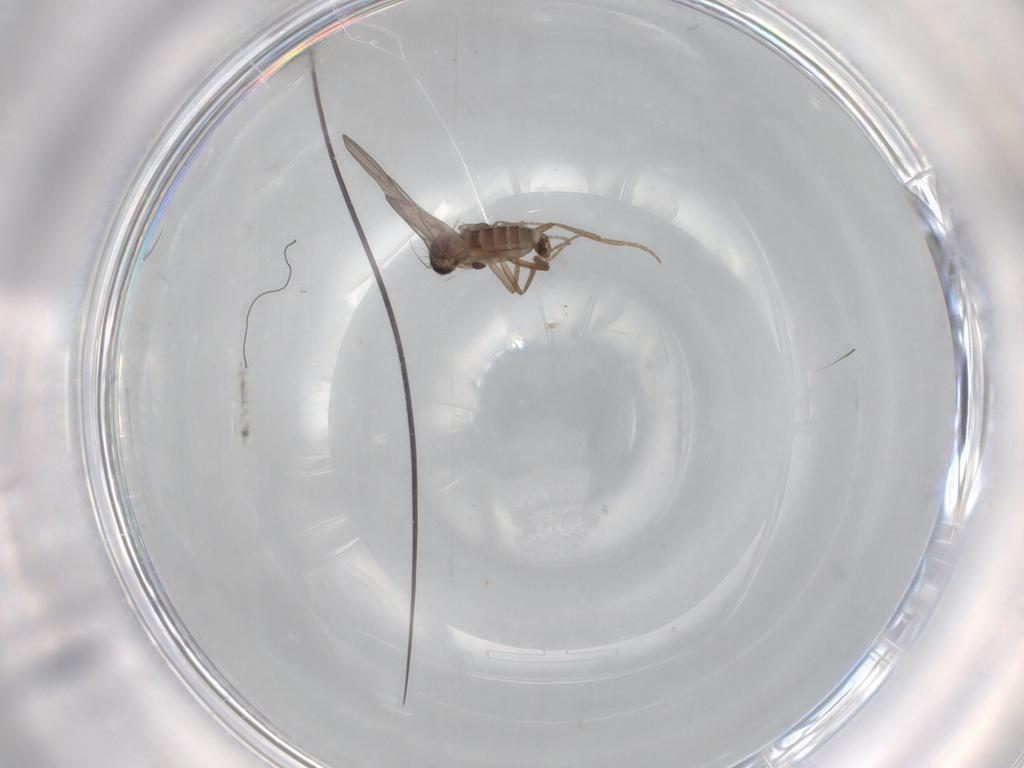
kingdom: Animalia
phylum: Arthropoda
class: Insecta
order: Diptera
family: Phoridae
